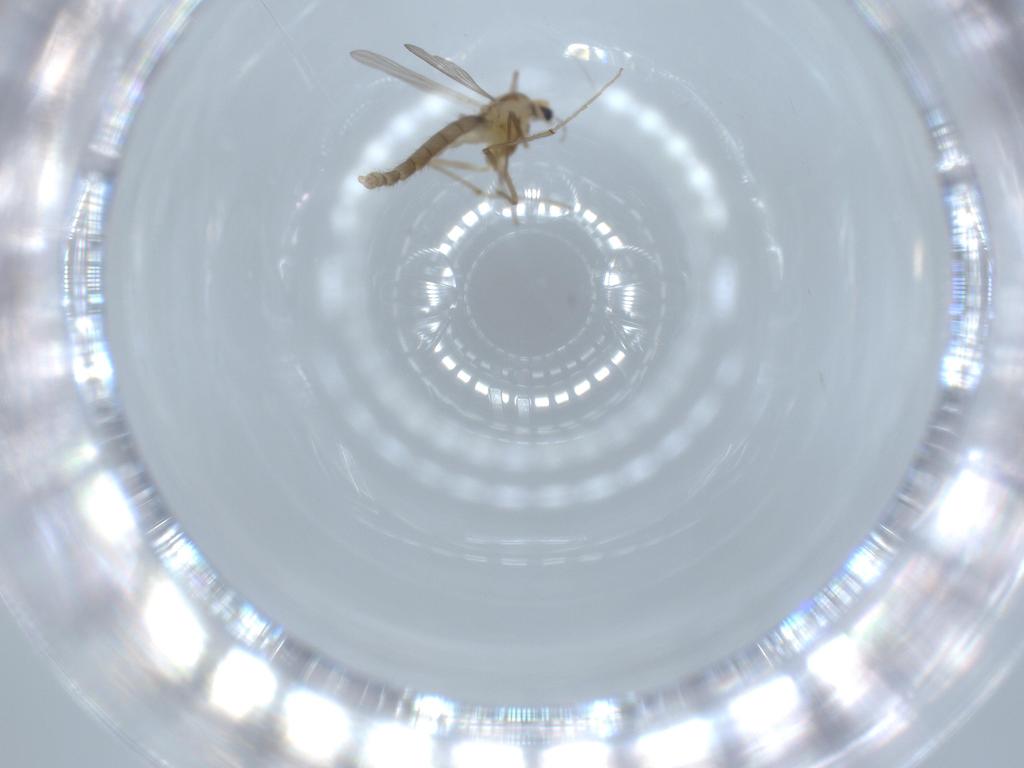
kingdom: Animalia
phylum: Arthropoda
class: Insecta
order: Diptera
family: Chironomidae
